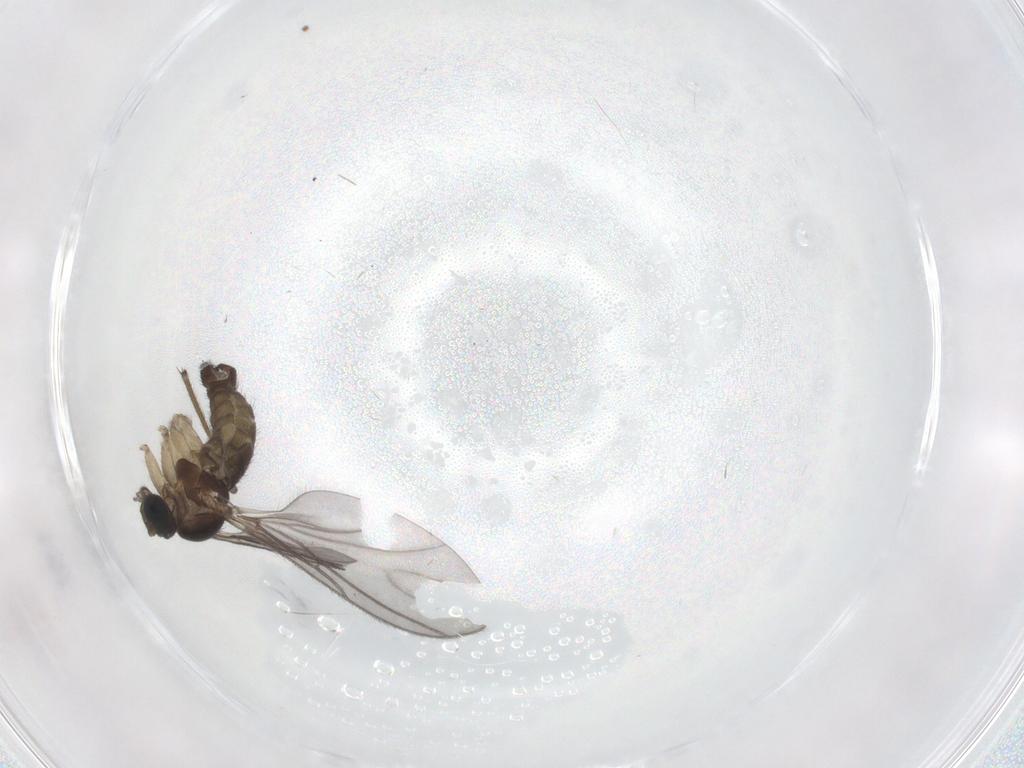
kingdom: Animalia
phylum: Arthropoda
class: Insecta
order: Diptera
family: Sciaridae
